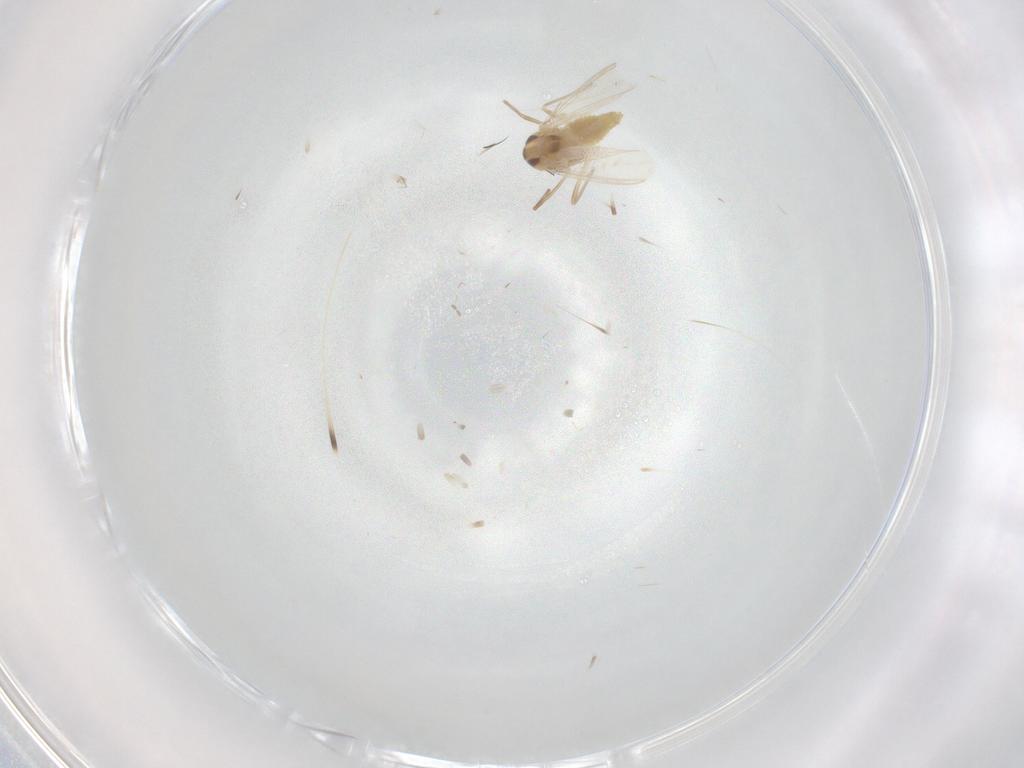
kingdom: Animalia
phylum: Arthropoda
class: Insecta
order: Diptera
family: Chironomidae
